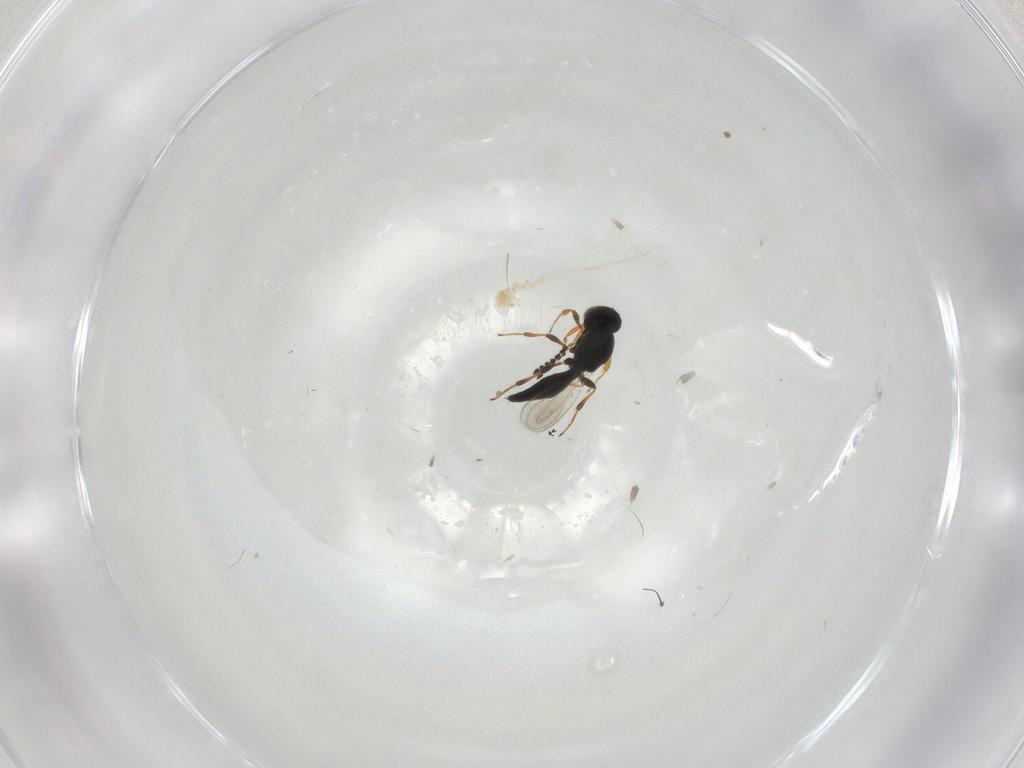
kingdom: Animalia
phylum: Arthropoda
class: Insecta
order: Hymenoptera
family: Platygastridae
